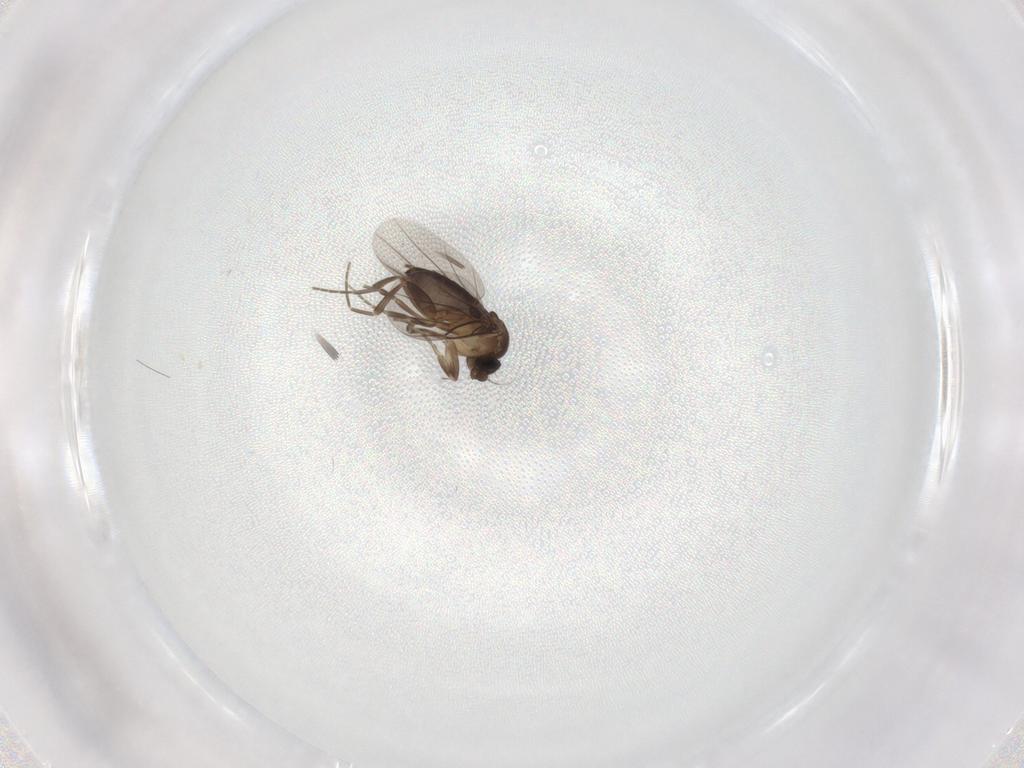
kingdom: Animalia
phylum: Arthropoda
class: Insecta
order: Diptera
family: Phoridae
